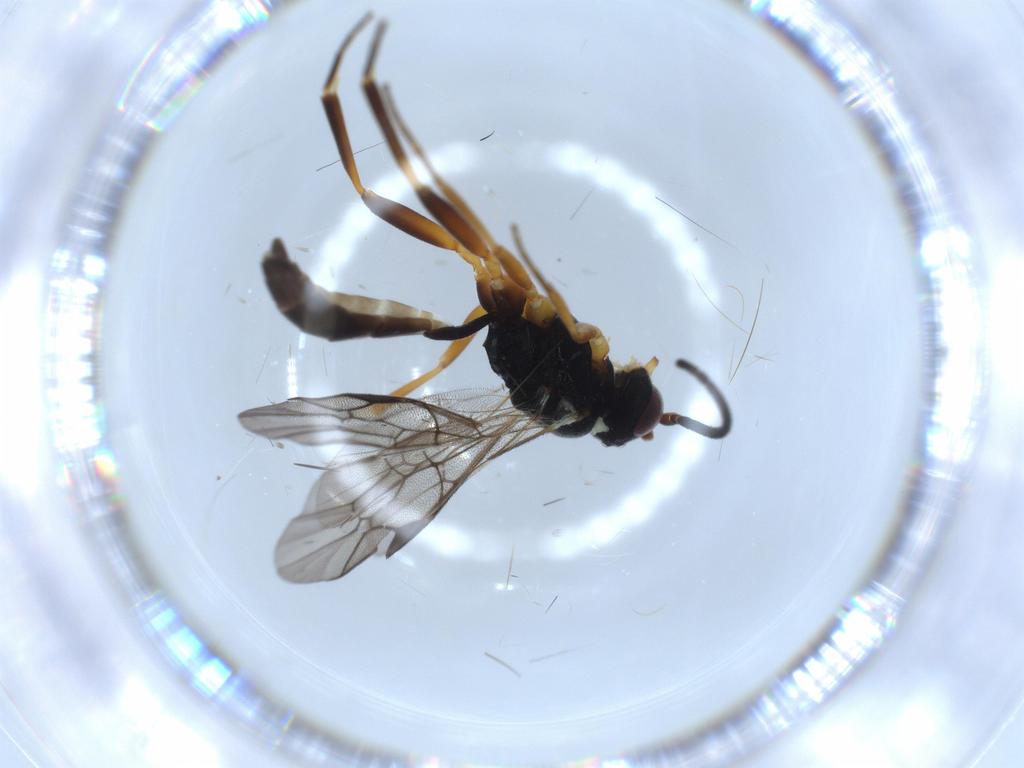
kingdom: Animalia
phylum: Arthropoda
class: Insecta
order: Hymenoptera
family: Ichneumonidae
